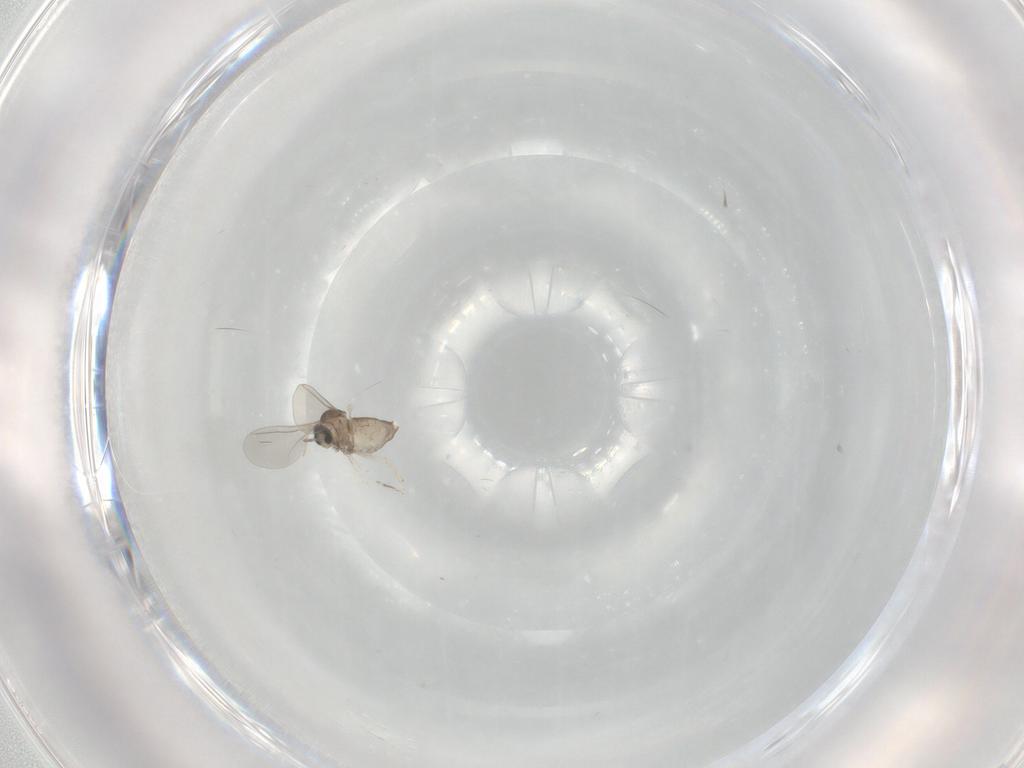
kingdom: Animalia
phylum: Arthropoda
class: Insecta
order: Diptera
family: Cecidomyiidae
